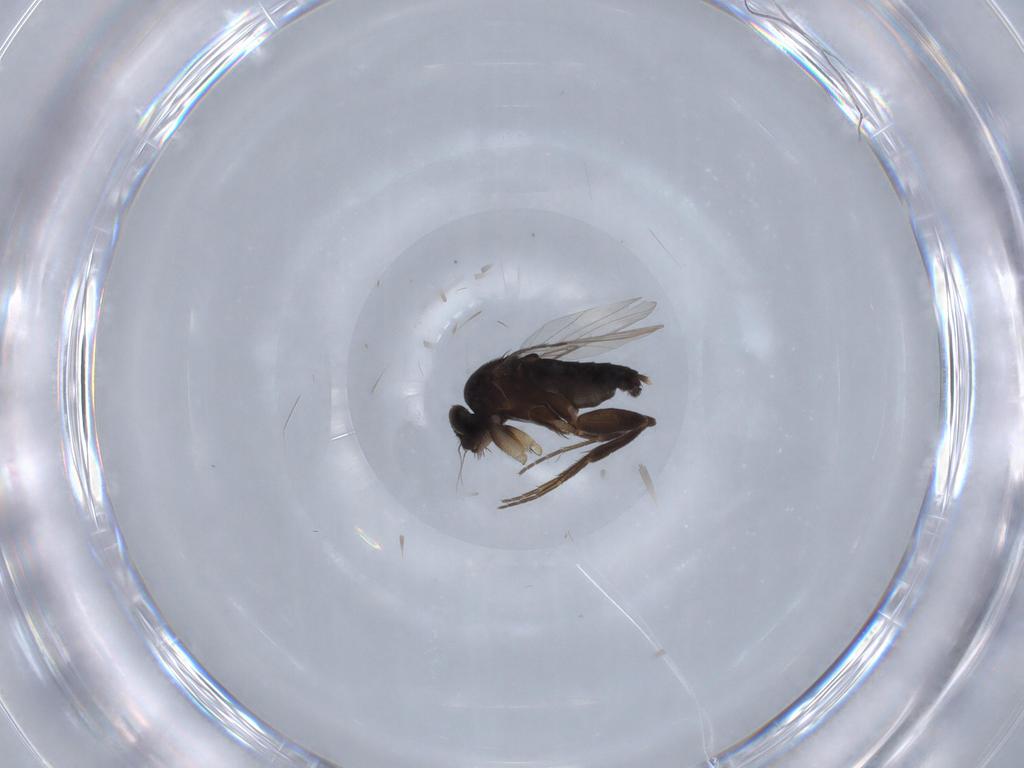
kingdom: Animalia
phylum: Arthropoda
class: Insecta
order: Diptera
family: Phoridae
